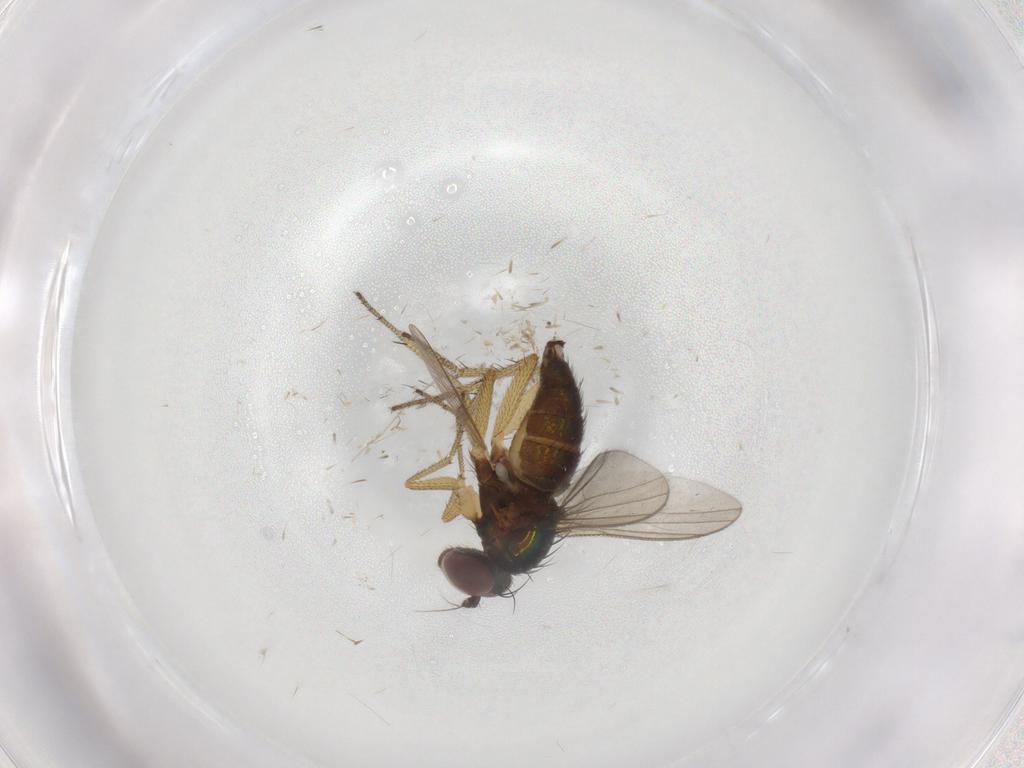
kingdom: Animalia
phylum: Arthropoda
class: Insecta
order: Diptera
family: Dolichopodidae
